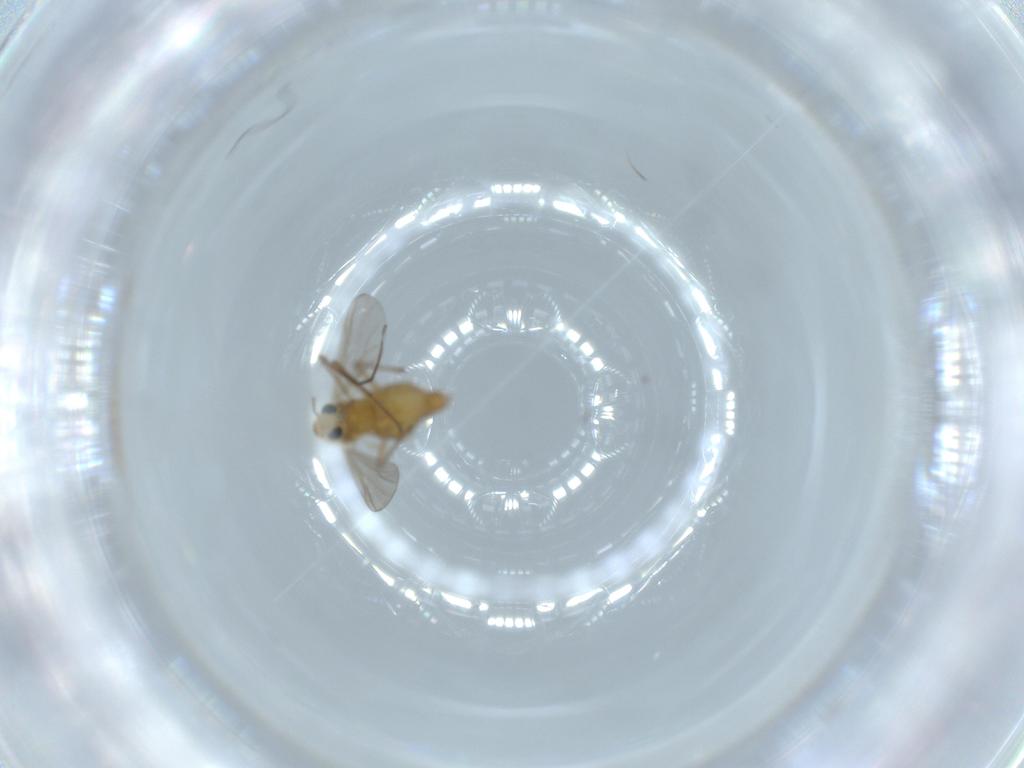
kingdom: Animalia
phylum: Arthropoda
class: Insecta
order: Diptera
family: Chironomidae
